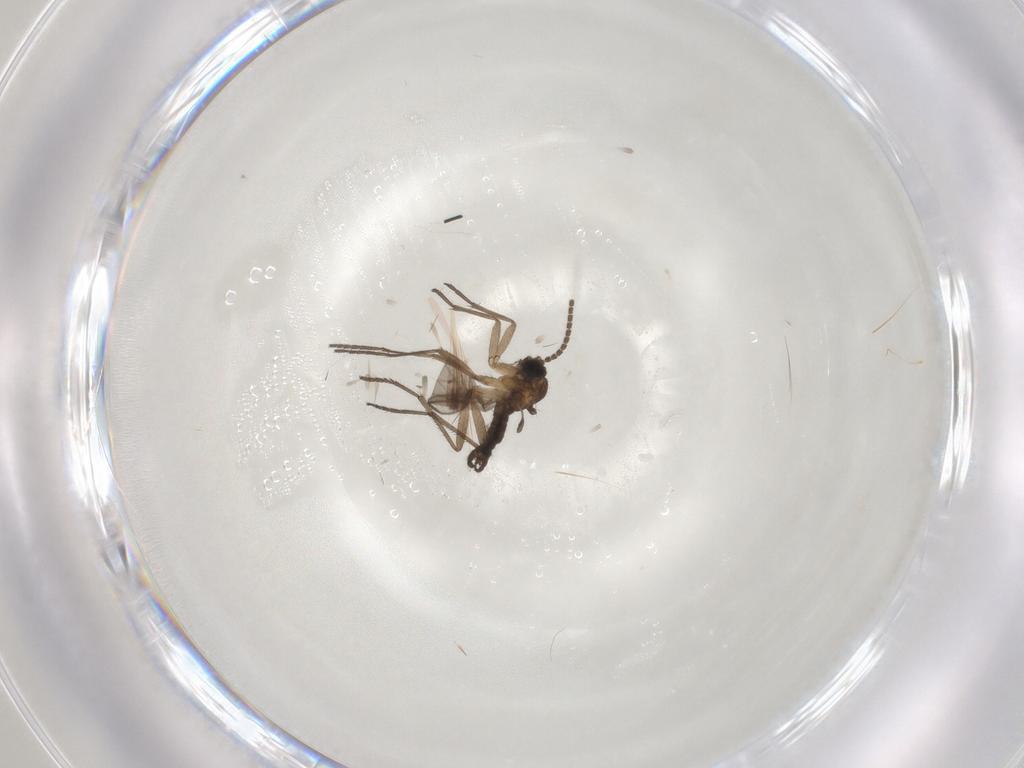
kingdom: Animalia
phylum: Arthropoda
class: Insecta
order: Diptera
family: Sciaridae
